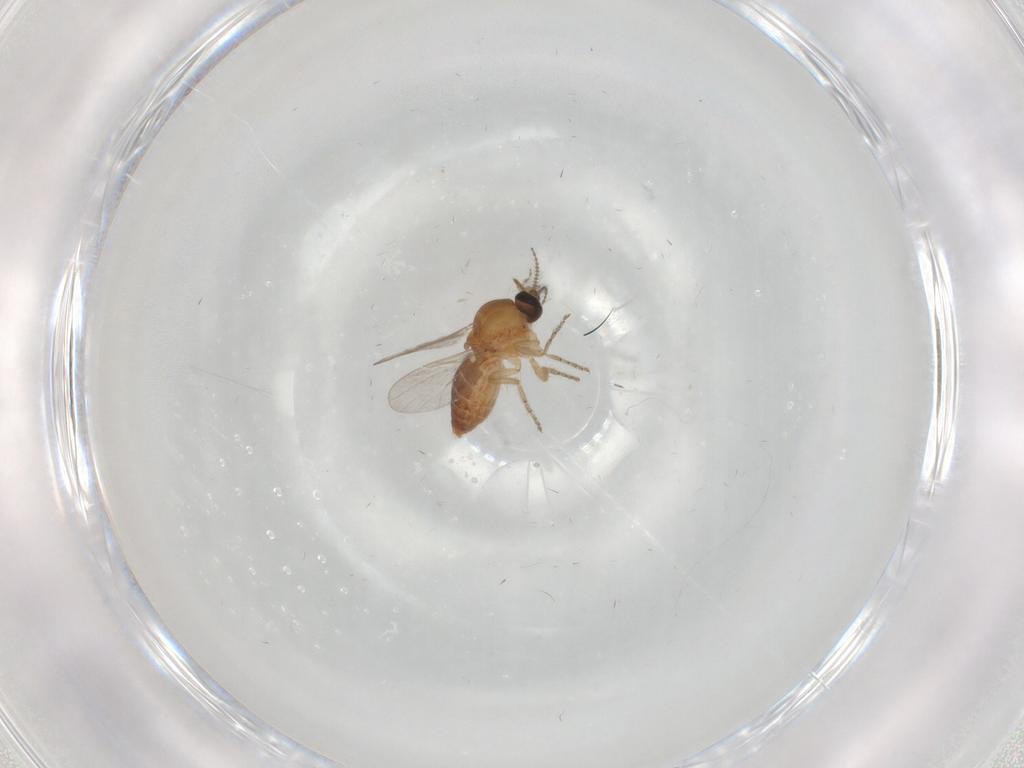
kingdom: Animalia
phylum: Arthropoda
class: Insecta
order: Diptera
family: Ceratopogonidae
